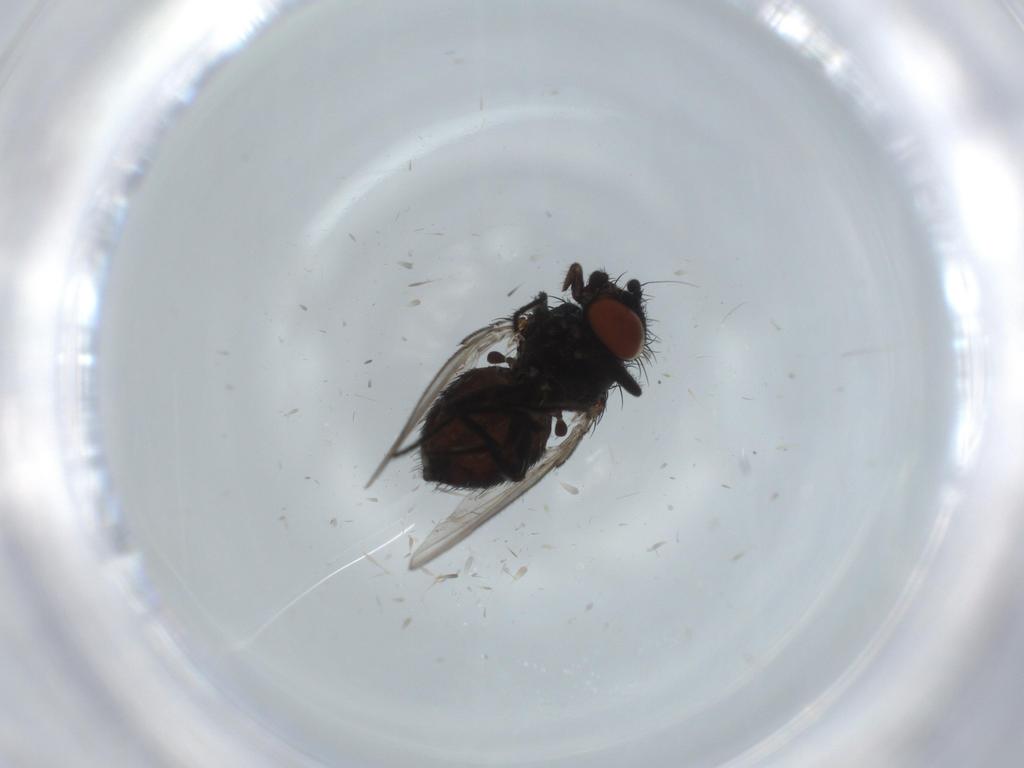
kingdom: Animalia
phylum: Arthropoda
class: Insecta
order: Diptera
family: Milichiidae
